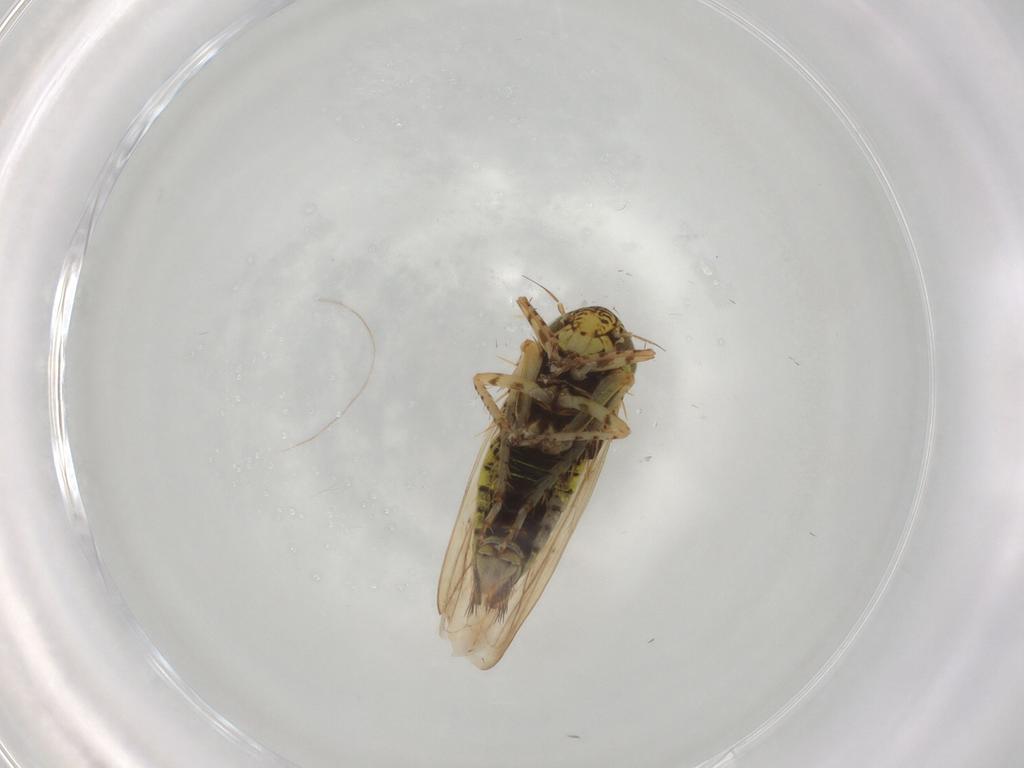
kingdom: Animalia
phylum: Arthropoda
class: Insecta
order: Hemiptera
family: Cicadellidae
